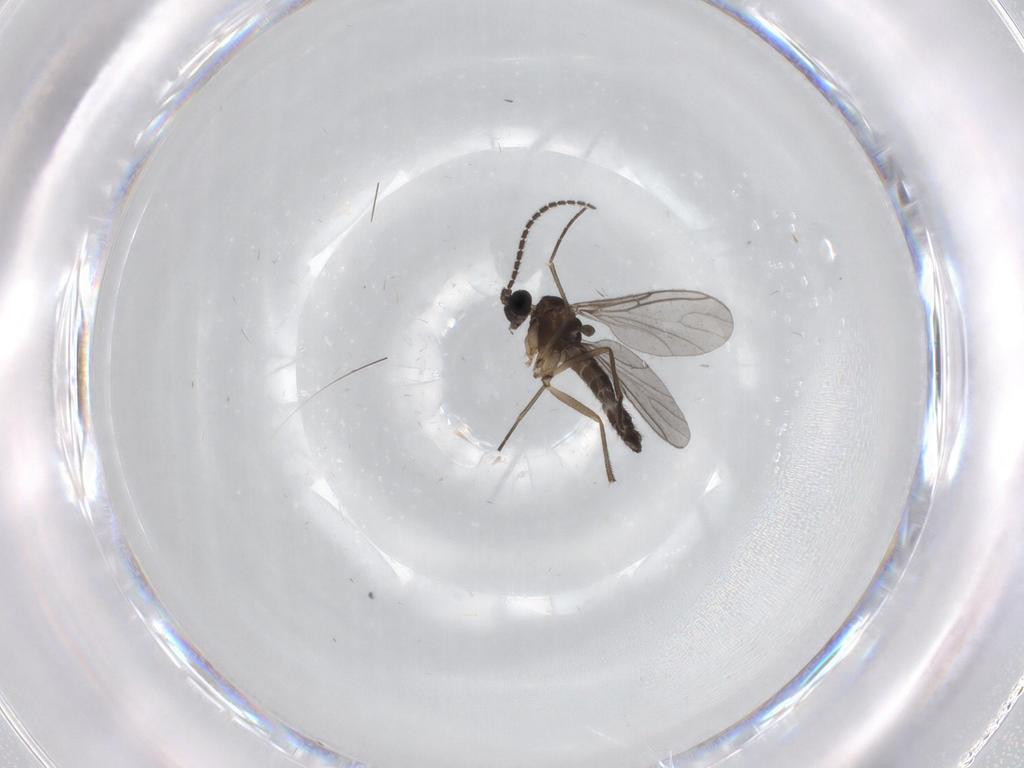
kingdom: Animalia
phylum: Arthropoda
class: Insecta
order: Diptera
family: Sciaridae
